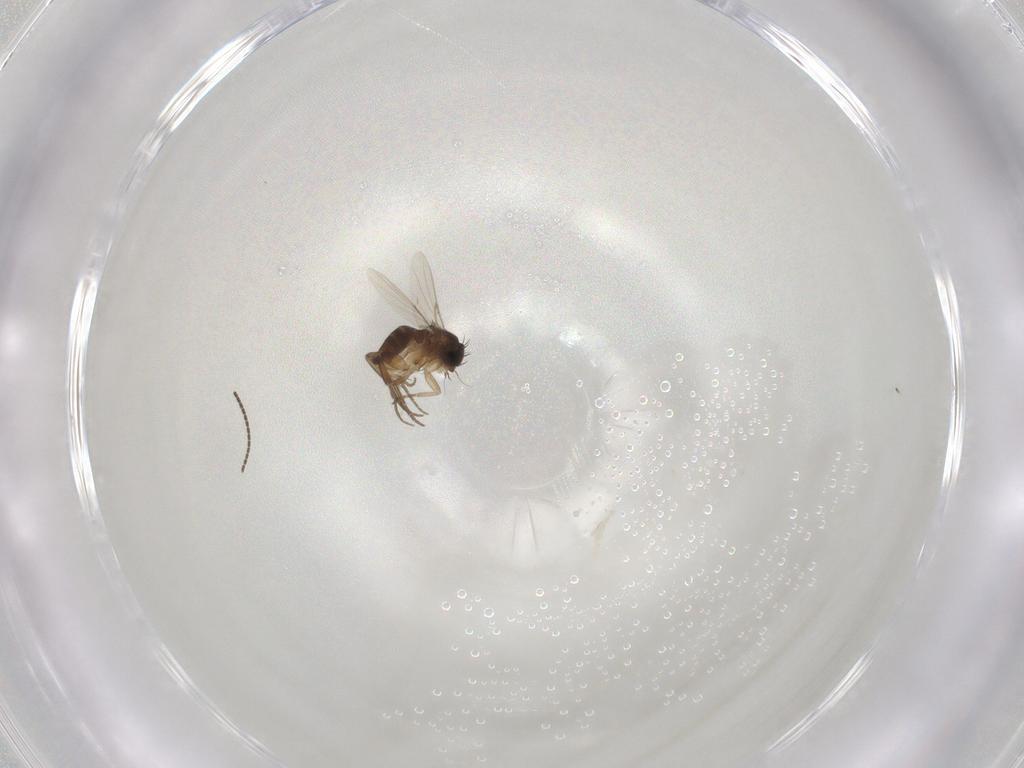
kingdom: Animalia
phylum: Arthropoda
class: Insecta
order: Diptera
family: Phoridae
